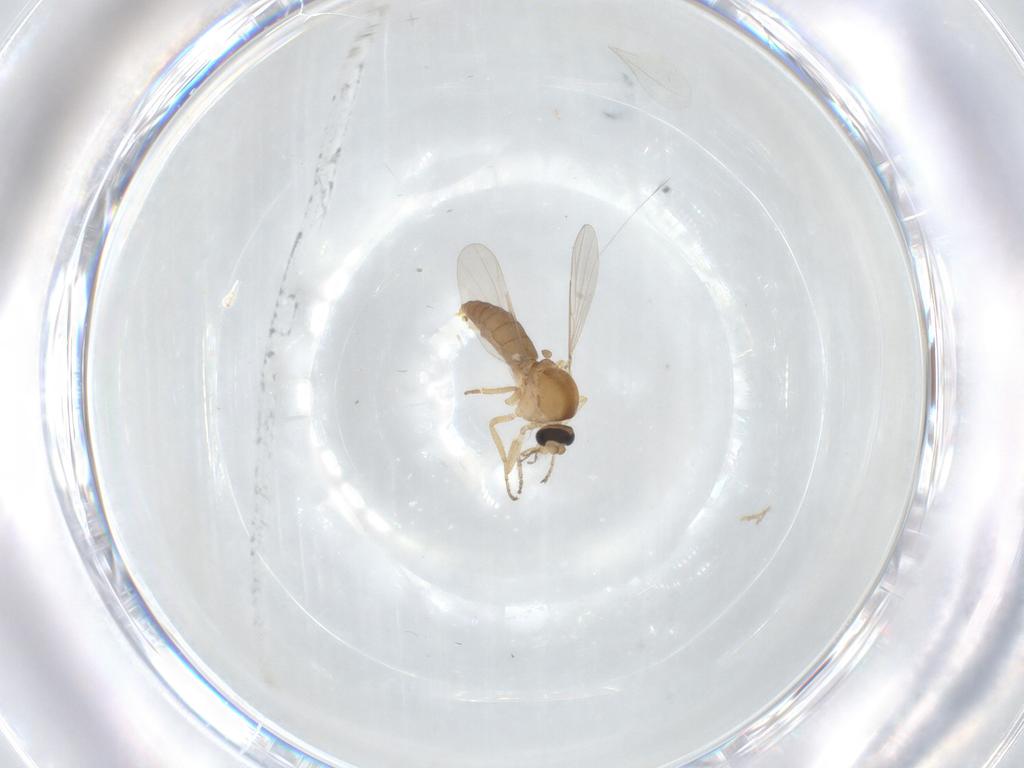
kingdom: Animalia
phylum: Arthropoda
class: Insecta
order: Diptera
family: Ceratopogonidae
